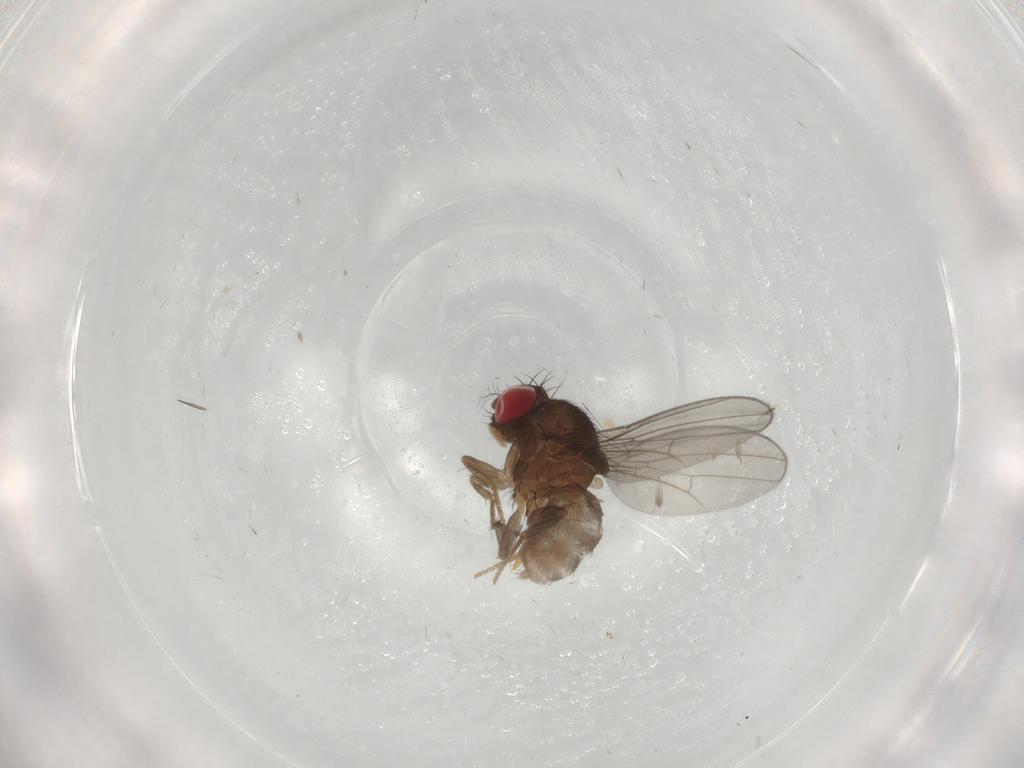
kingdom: Animalia
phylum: Arthropoda
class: Insecta
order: Diptera
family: Drosophilidae
